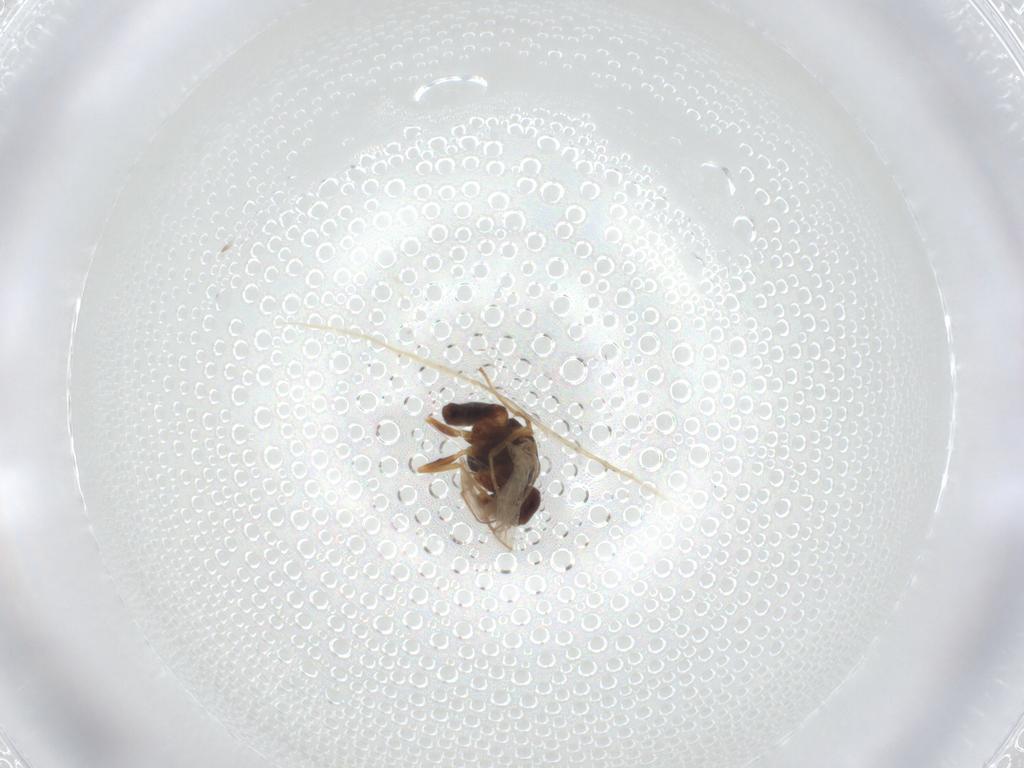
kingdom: Animalia
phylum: Arthropoda
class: Insecta
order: Diptera
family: Cecidomyiidae
